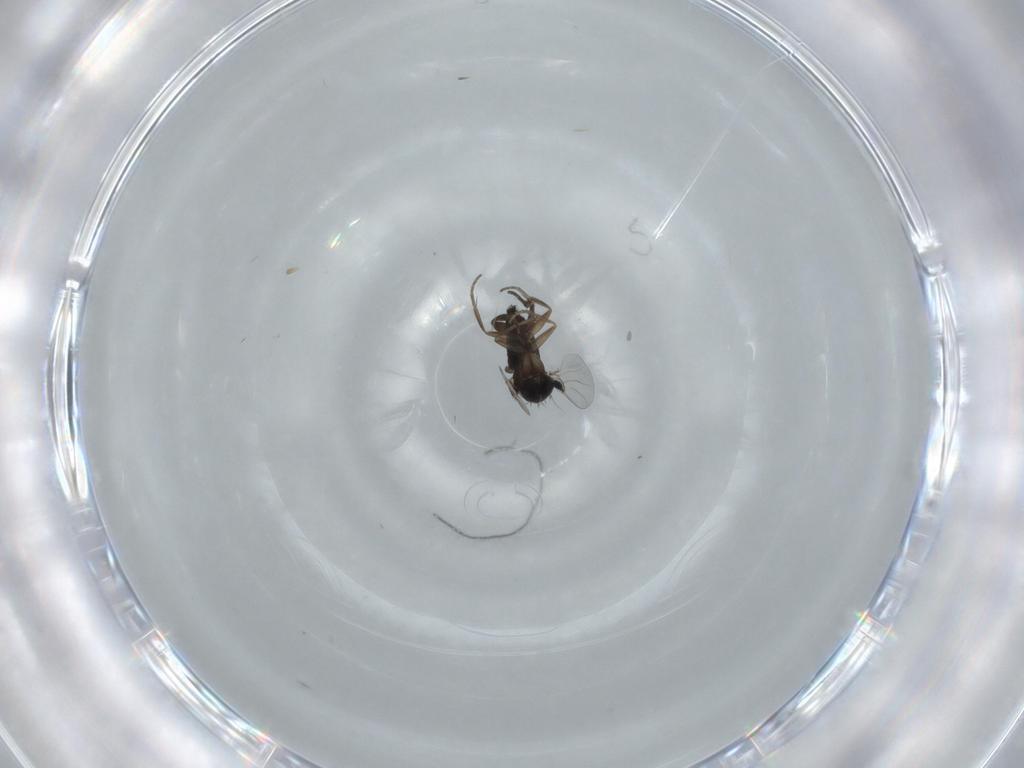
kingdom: Animalia
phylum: Arthropoda
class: Insecta
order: Diptera
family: Phoridae
